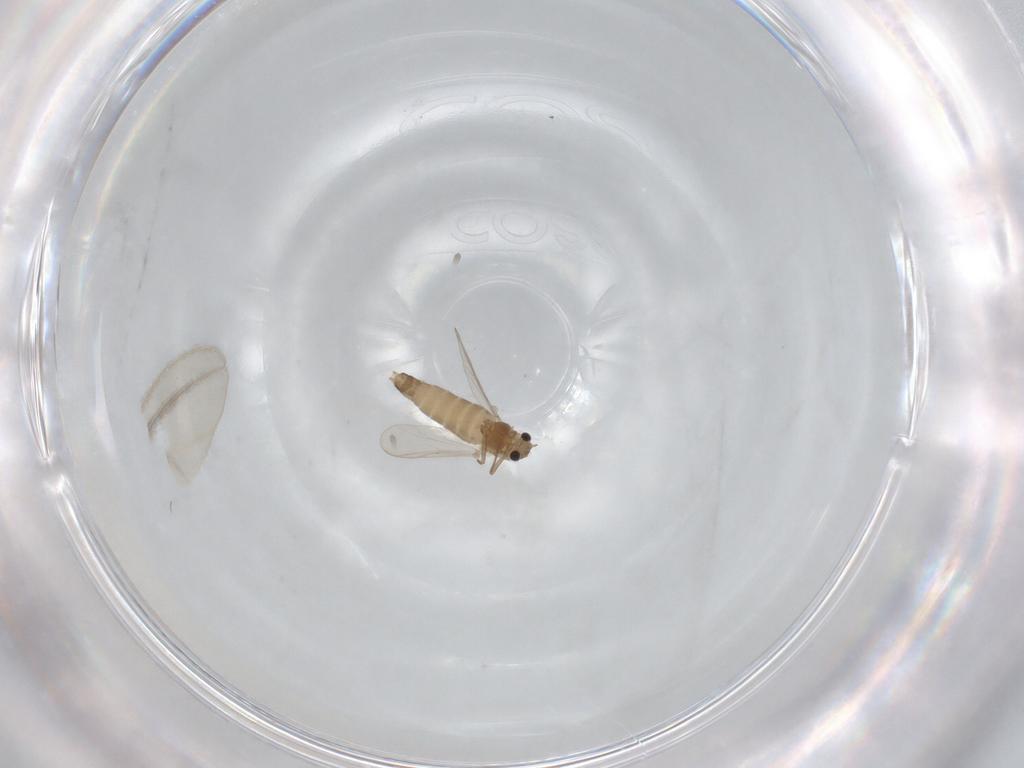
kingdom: Animalia
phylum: Arthropoda
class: Insecta
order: Diptera
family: Chironomidae
